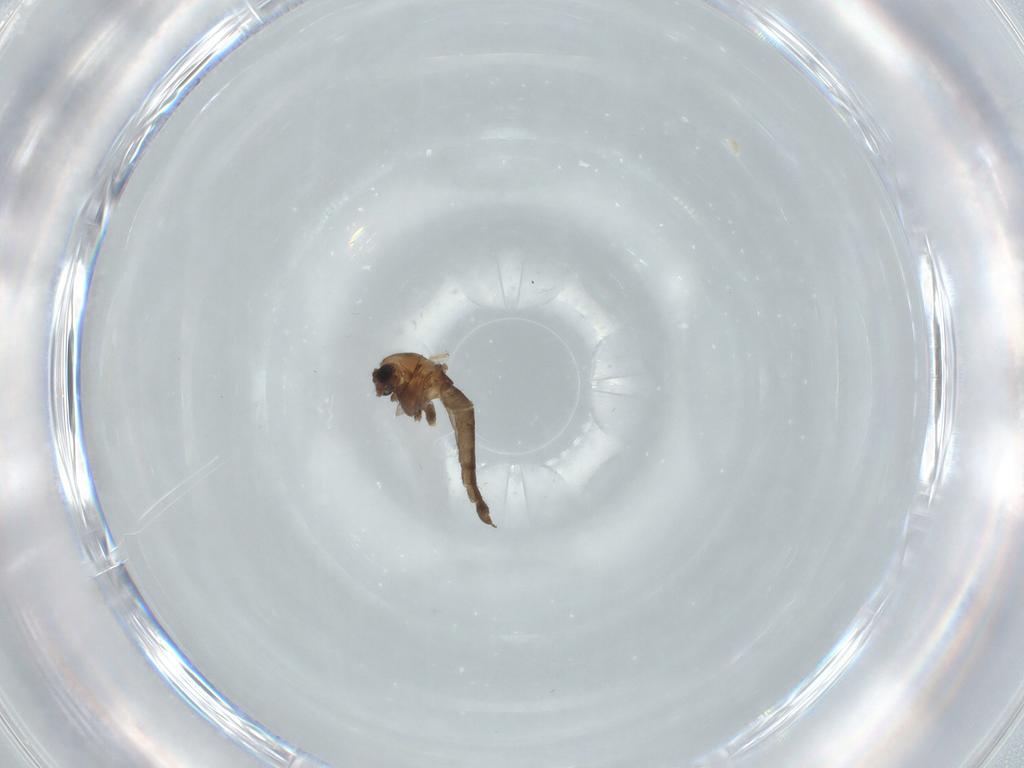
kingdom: Animalia
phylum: Arthropoda
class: Insecta
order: Diptera
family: Chironomidae
